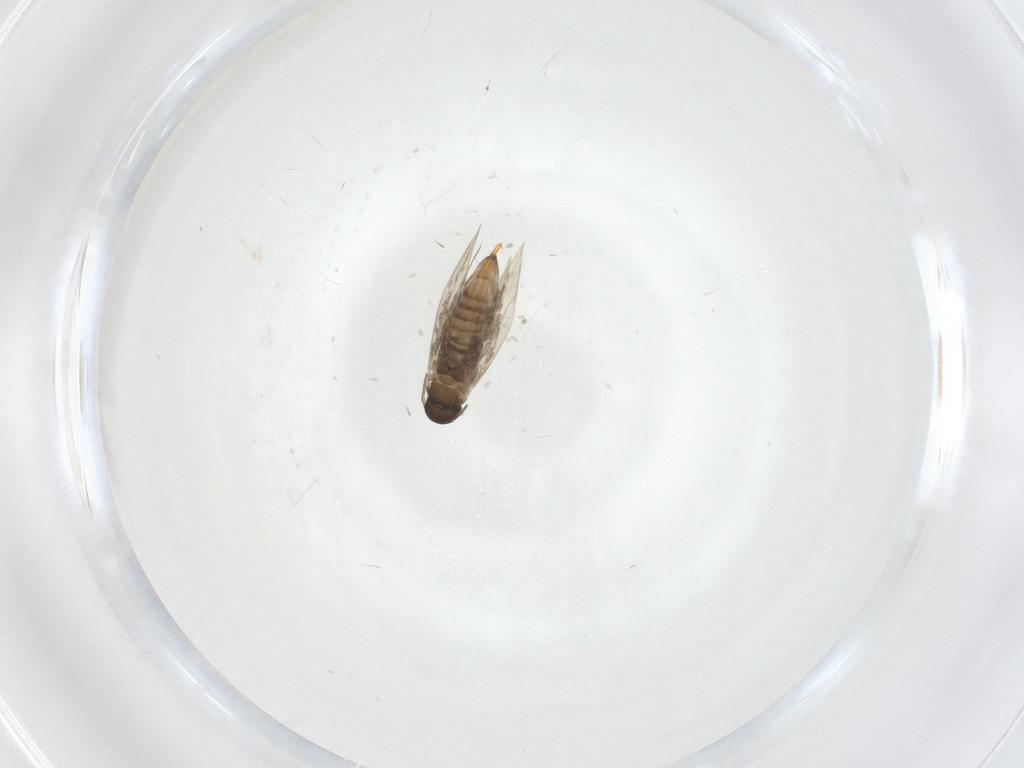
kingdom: Animalia
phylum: Arthropoda
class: Insecta
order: Lepidoptera
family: Heliozelidae
